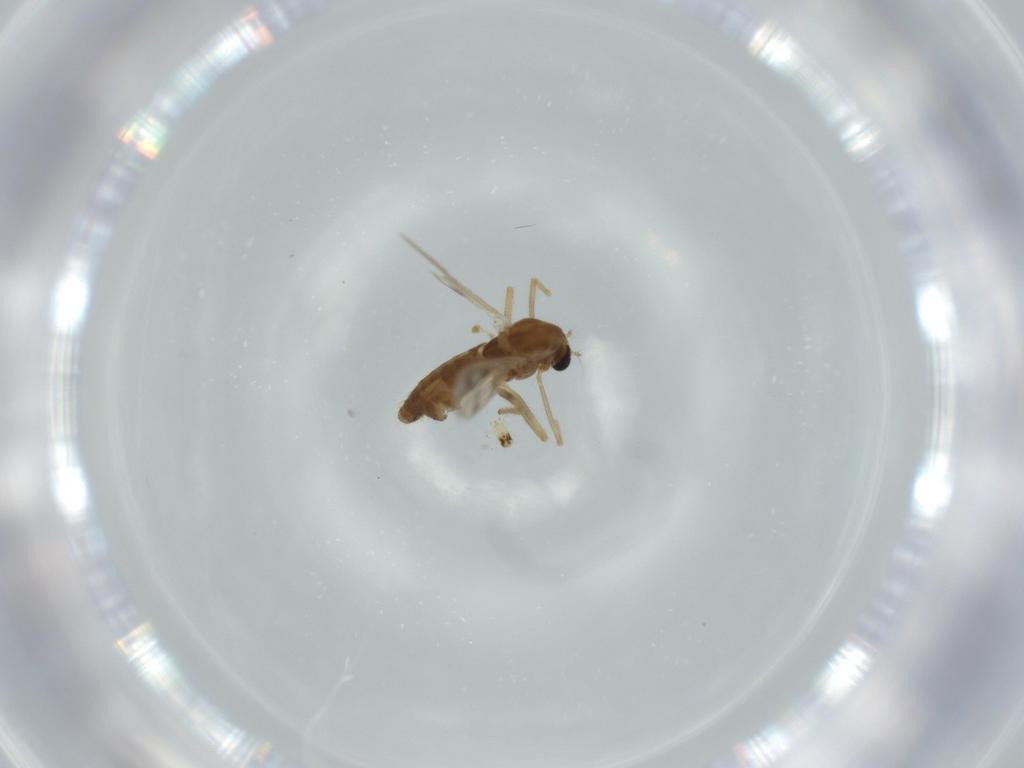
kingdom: Animalia
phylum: Arthropoda
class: Insecta
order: Diptera
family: Chironomidae
